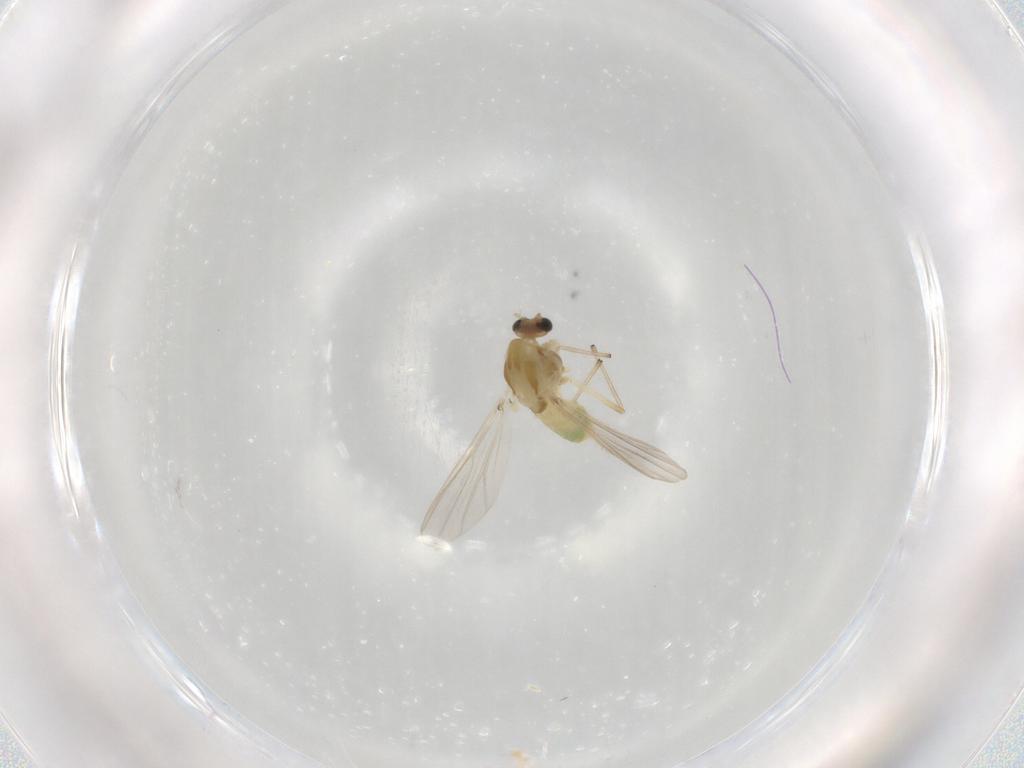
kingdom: Animalia
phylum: Arthropoda
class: Insecta
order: Diptera
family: Chironomidae
